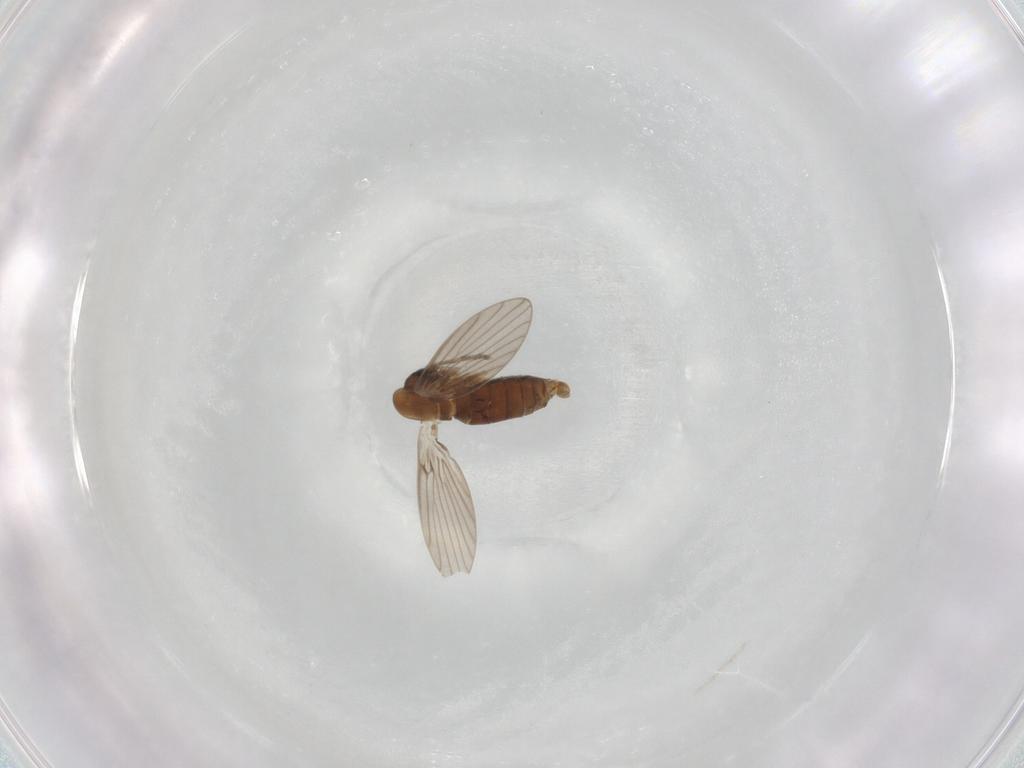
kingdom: Animalia
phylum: Arthropoda
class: Insecta
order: Diptera
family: Psychodidae
